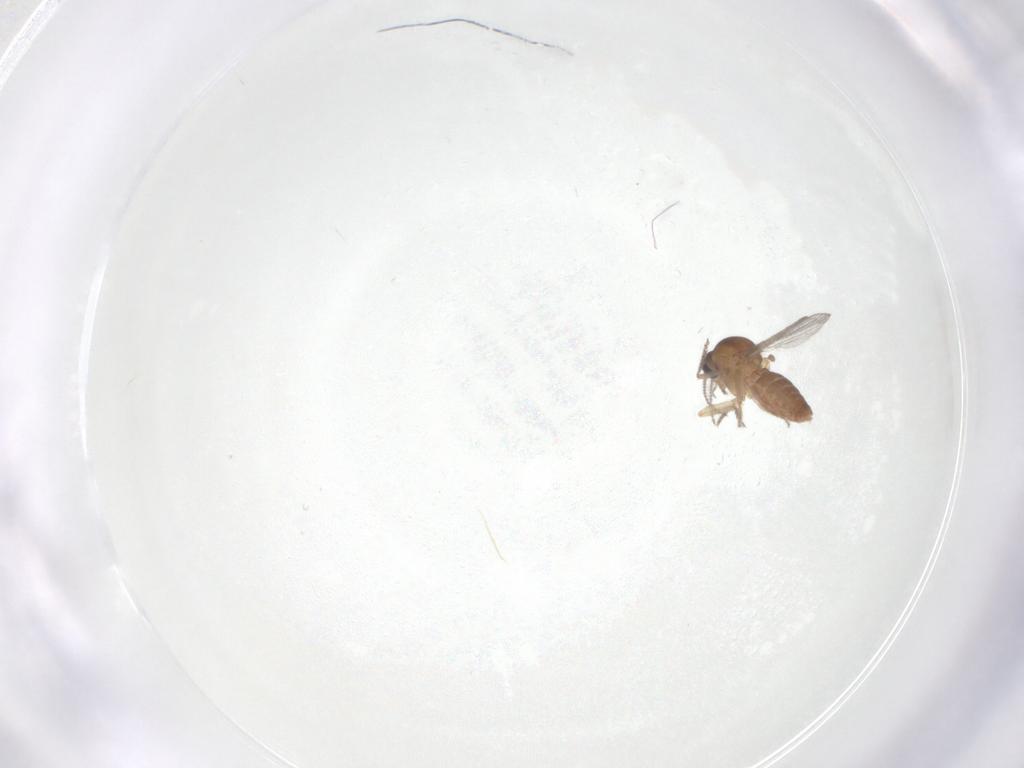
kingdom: Animalia
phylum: Arthropoda
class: Insecta
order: Diptera
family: Ceratopogonidae
